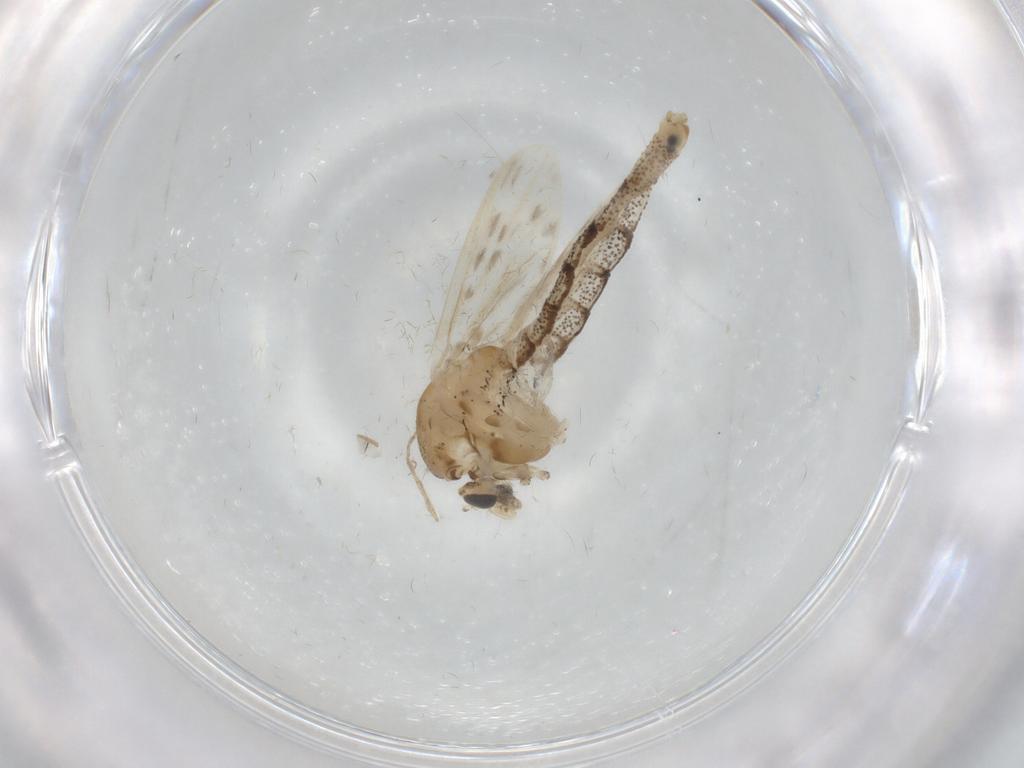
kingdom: Animalia
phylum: Arthropoda
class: Insecta
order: Diptera
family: Chaoboridae
